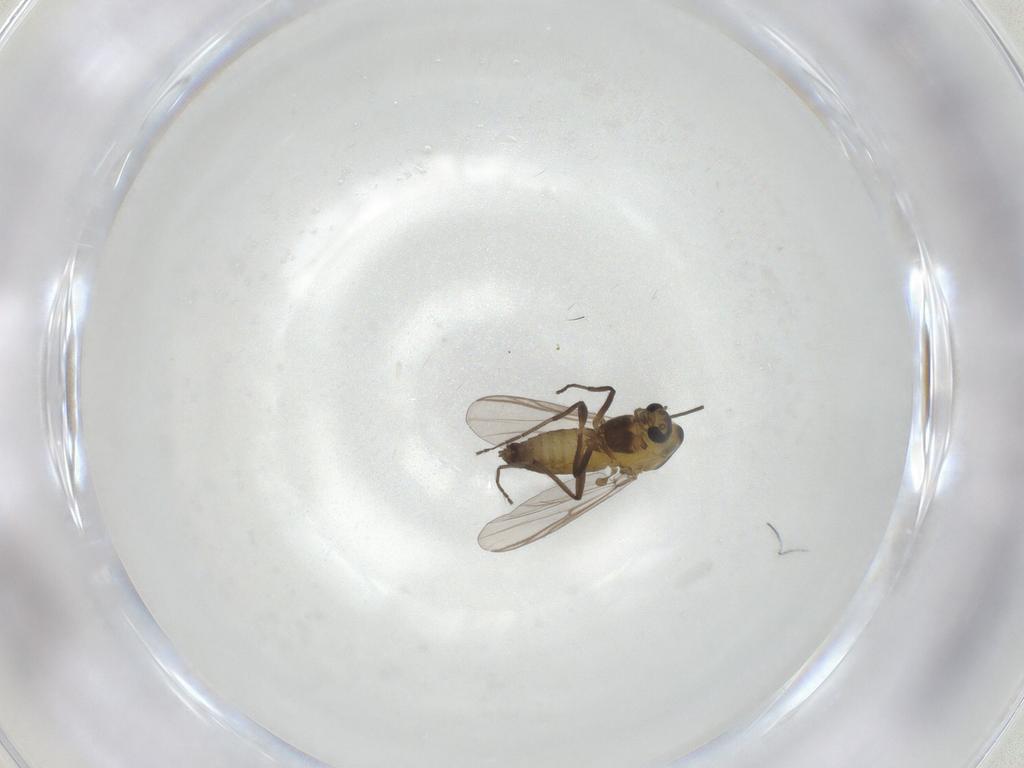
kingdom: Animalia
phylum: Arthropoda
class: Insecta
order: Diptera
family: Chironomidae
